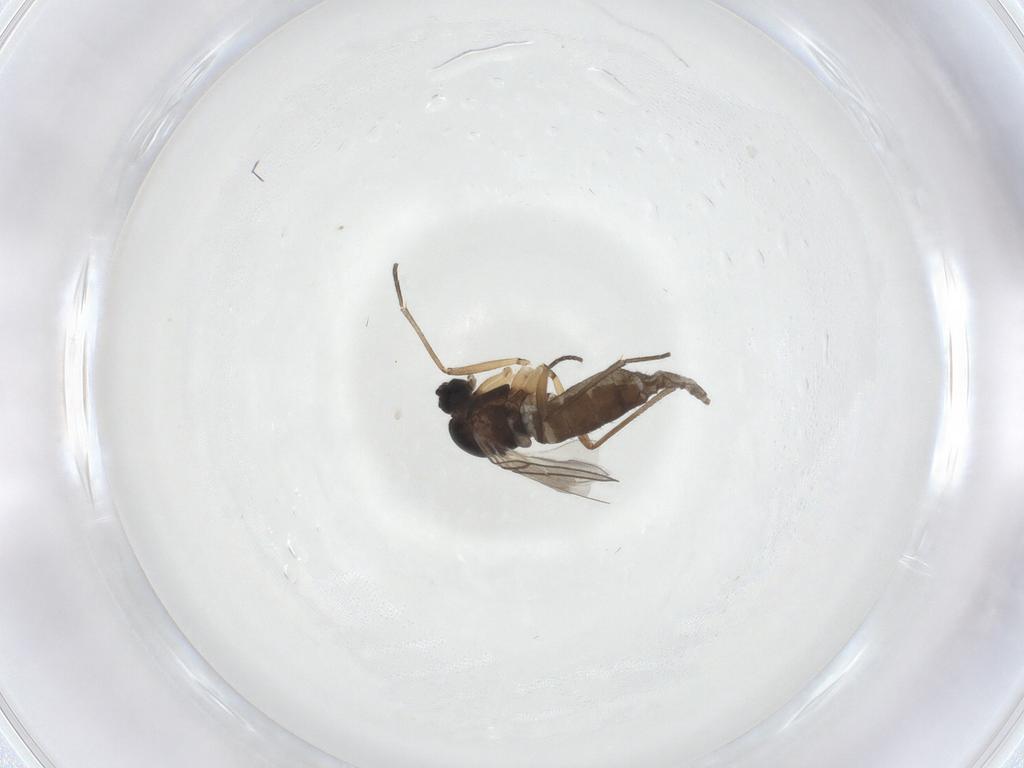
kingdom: Animalia
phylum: Arthropoda
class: Insecta
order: Diptera
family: Sciaridae
